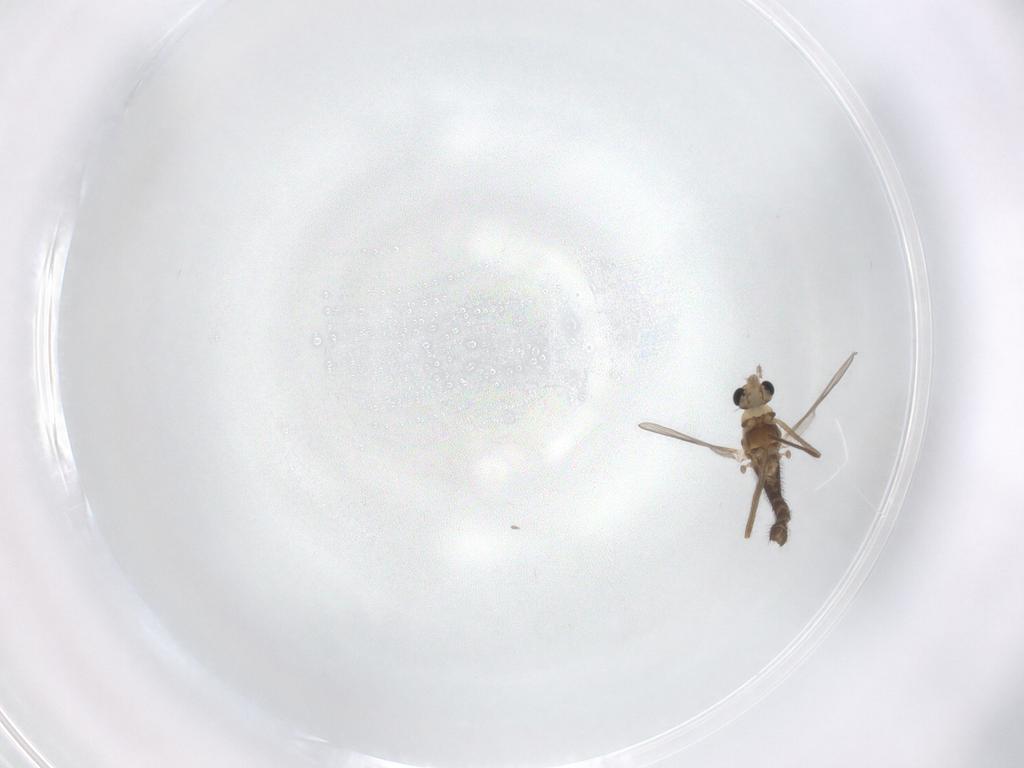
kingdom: Animalia
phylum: Arthropoda
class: Insecta
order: Diptera
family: Chironomidae
